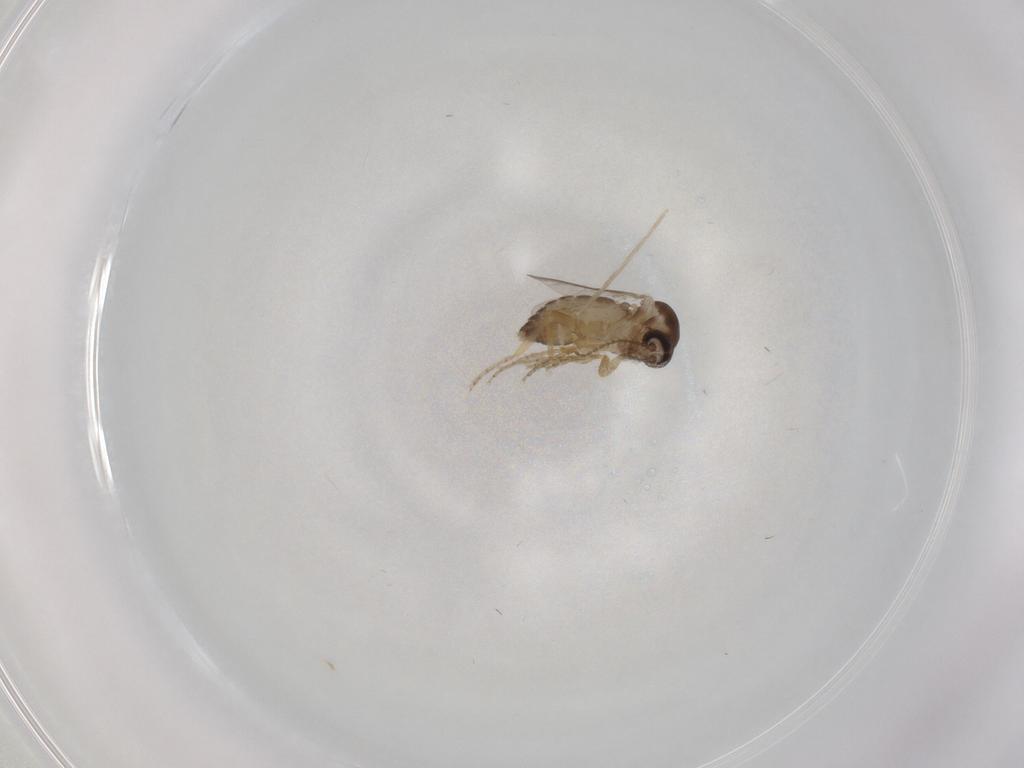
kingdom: Animalia
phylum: Arthropoda
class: Insecta
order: Diptera
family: Ceratopogonidae
